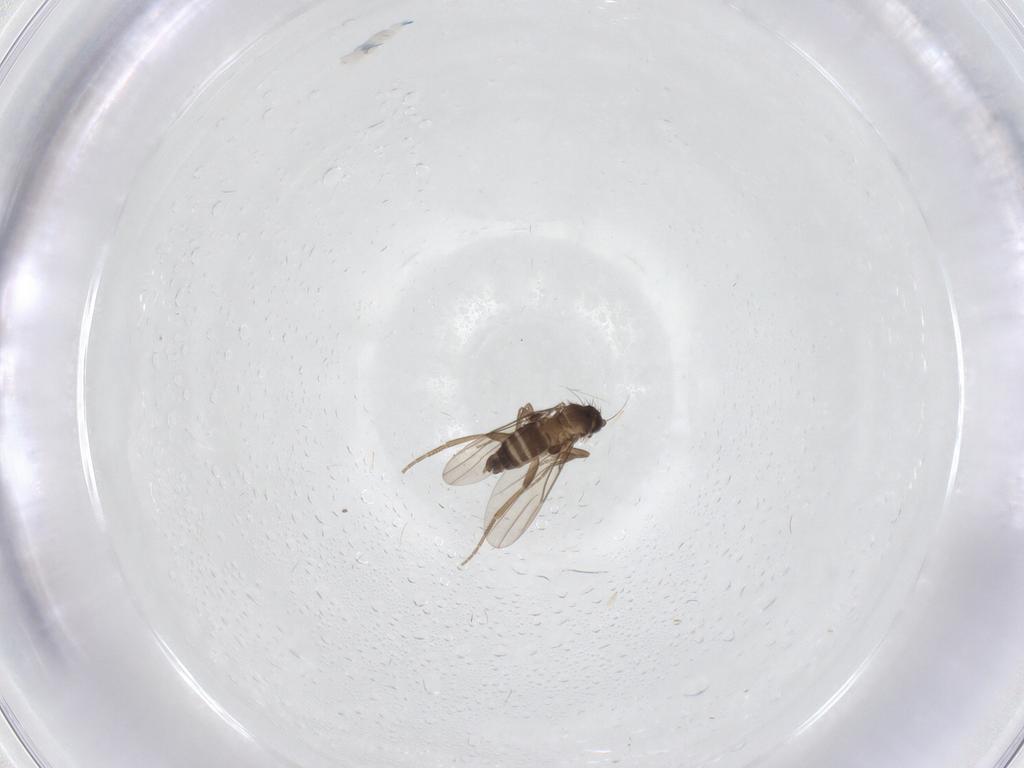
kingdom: Animalia
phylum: Arthropoda
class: Insecta
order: Diptera
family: Phoridae
